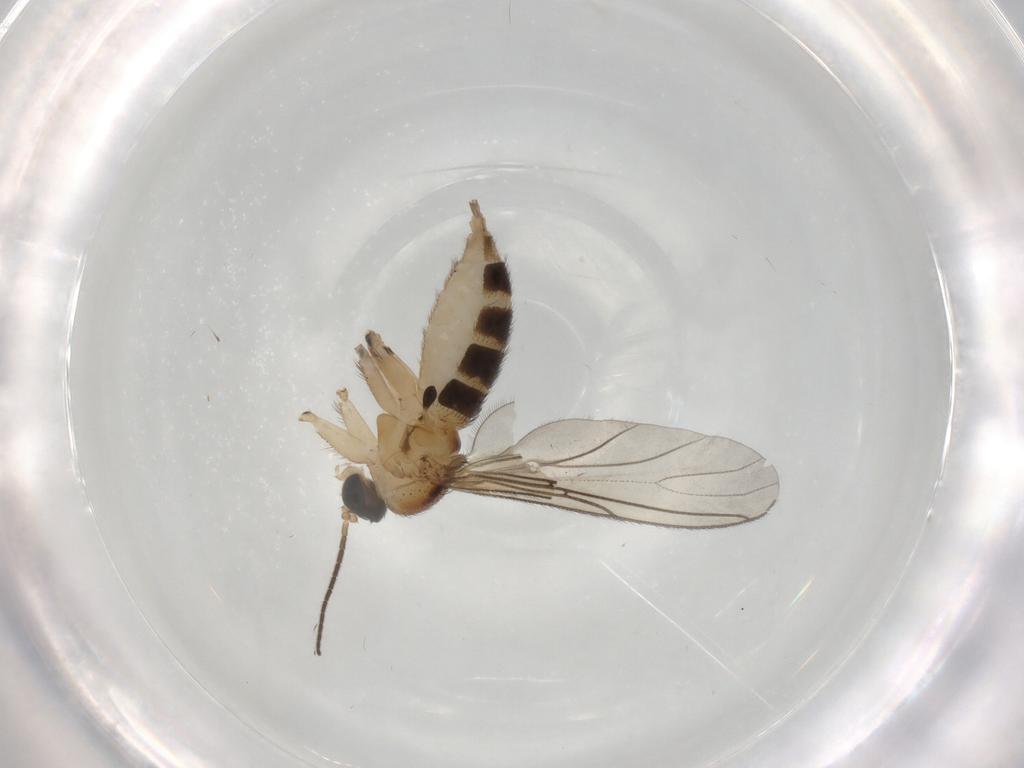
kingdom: Animalia
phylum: Arthropoda
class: Insecta
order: Diptera
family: Sciaridae
